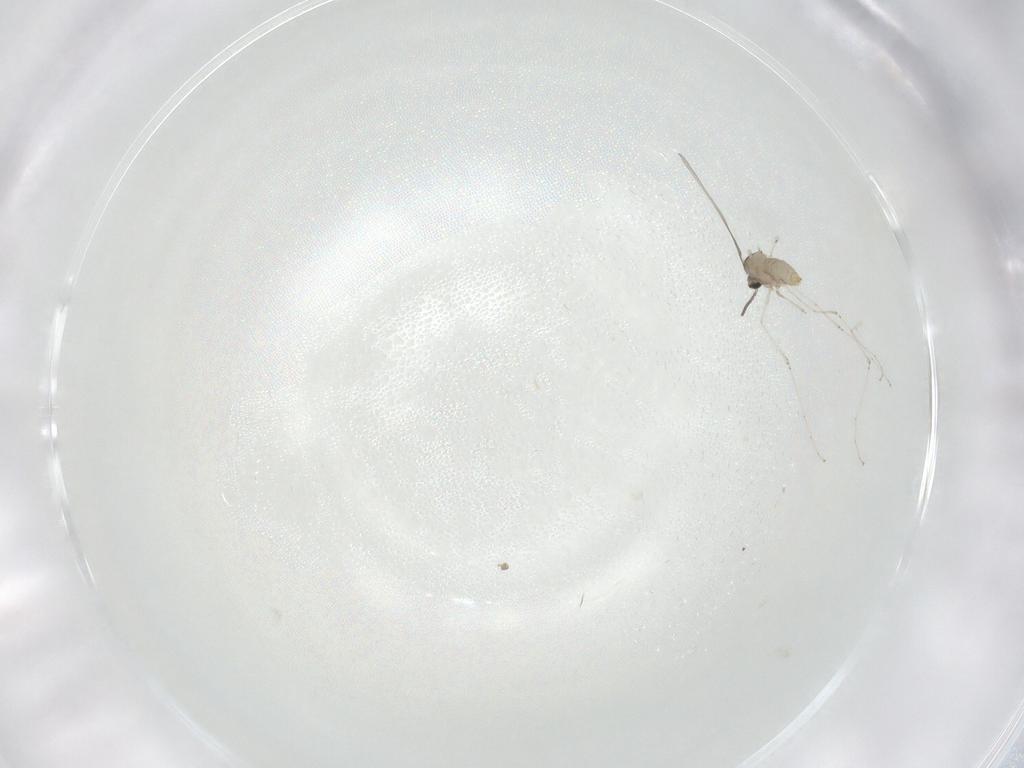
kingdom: Animalia
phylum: Arthropoda
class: Insecta
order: Diptera
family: Cecidomyiidae
